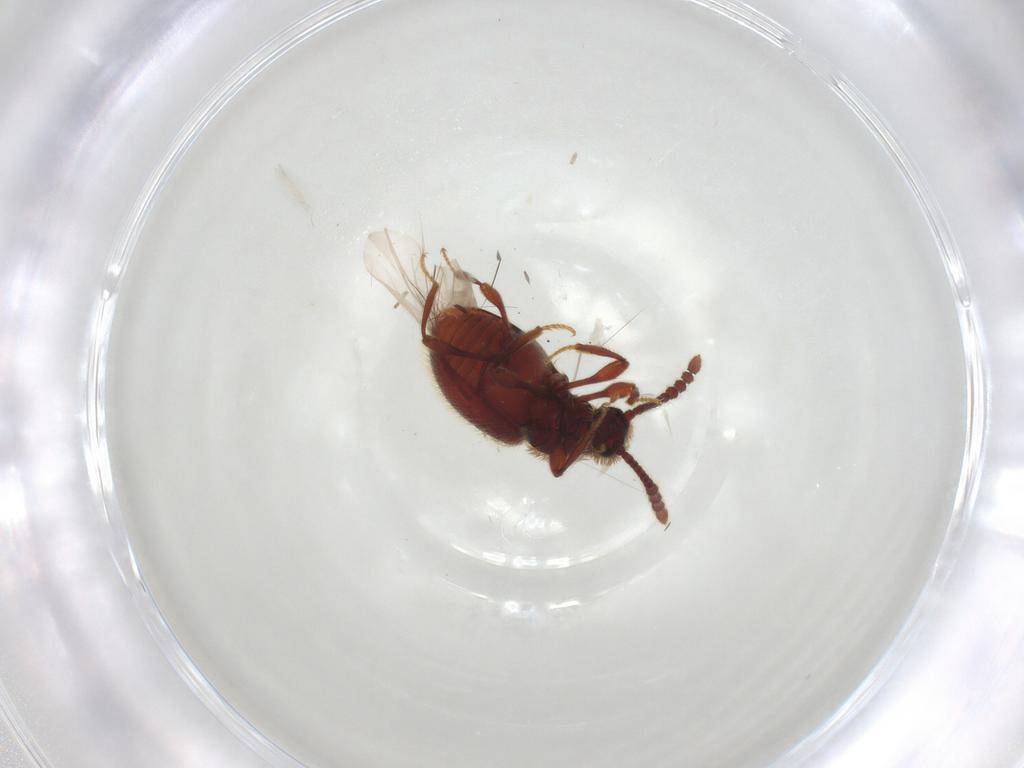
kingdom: Animalia
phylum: Arthropoda
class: Insecta
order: Coleoptera
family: Staphylinidae
